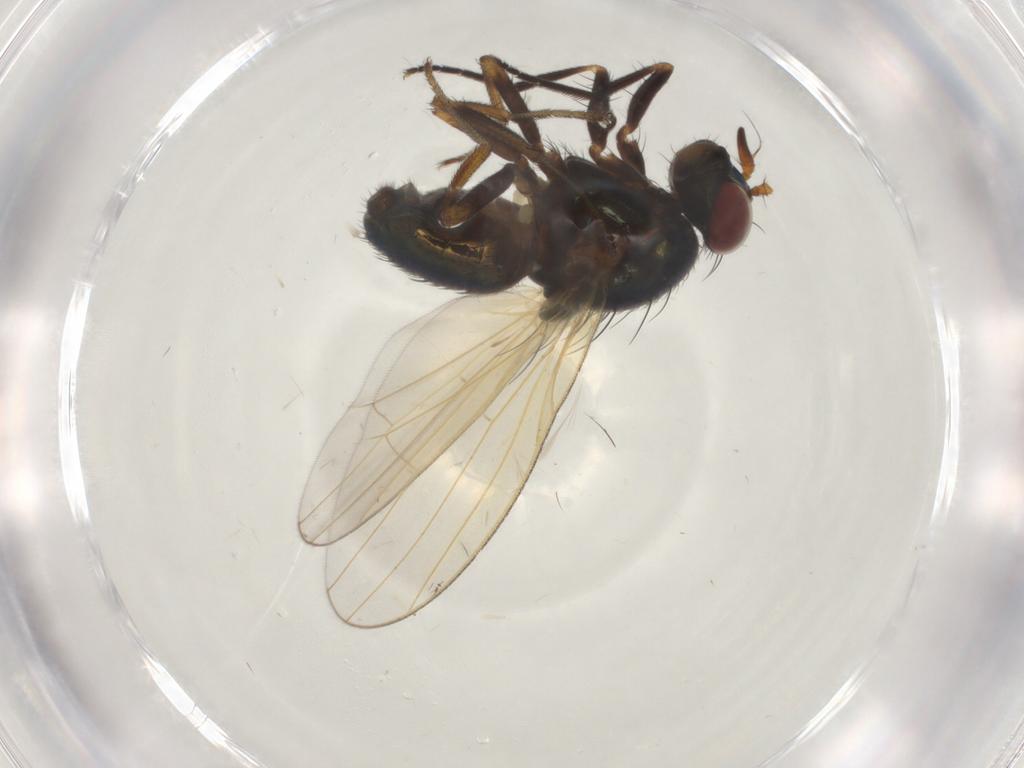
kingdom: Animalia
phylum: Arthropoda
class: Insecta
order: Diptera
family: Lauxaniidae
